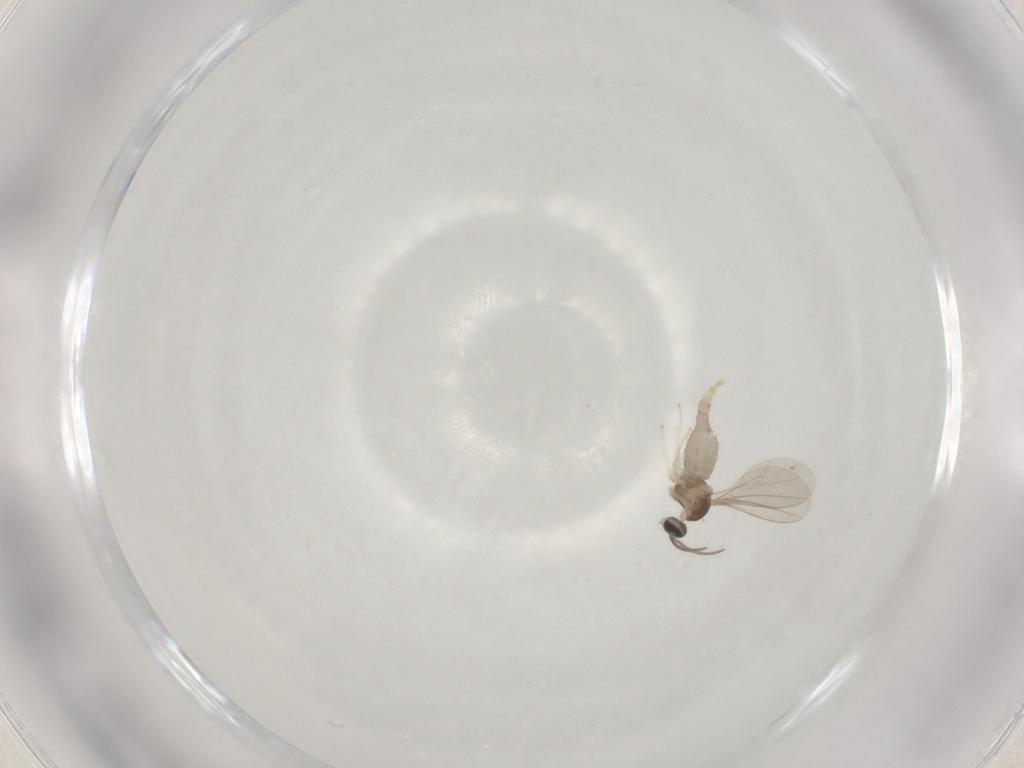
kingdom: Animalia
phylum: Arthropoda
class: Insecta
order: Diptera
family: Cecidomyiidae
